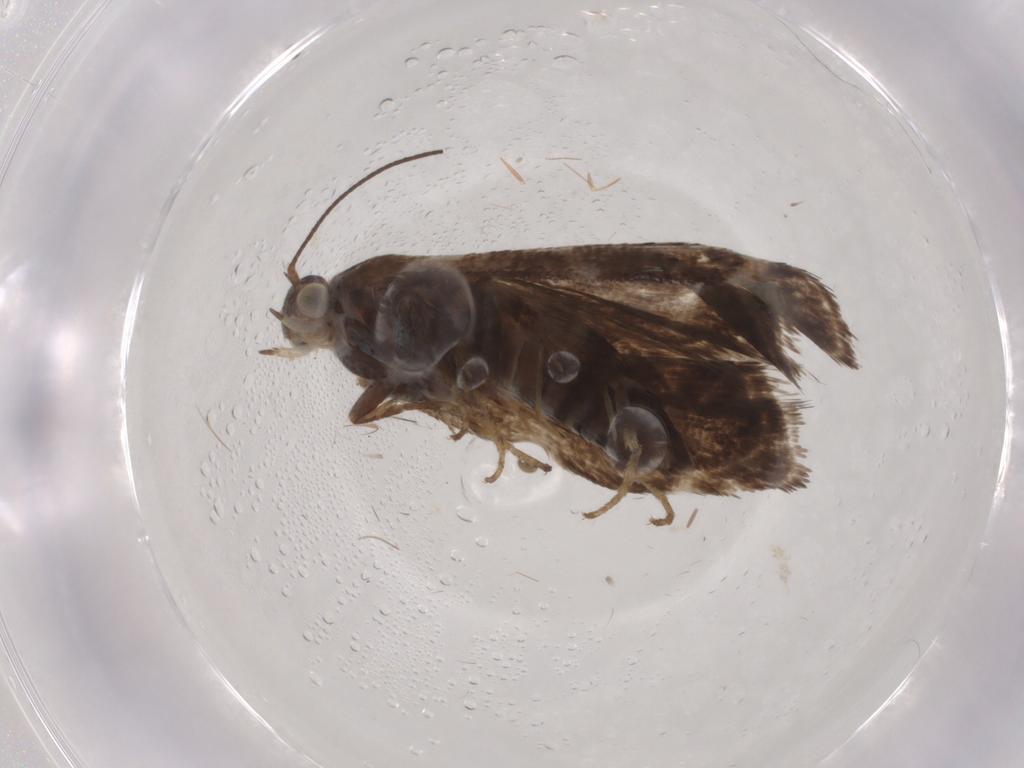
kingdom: Animalia
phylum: Arthropoda
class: Insecta
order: Lepidoptera
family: Choreutidae
